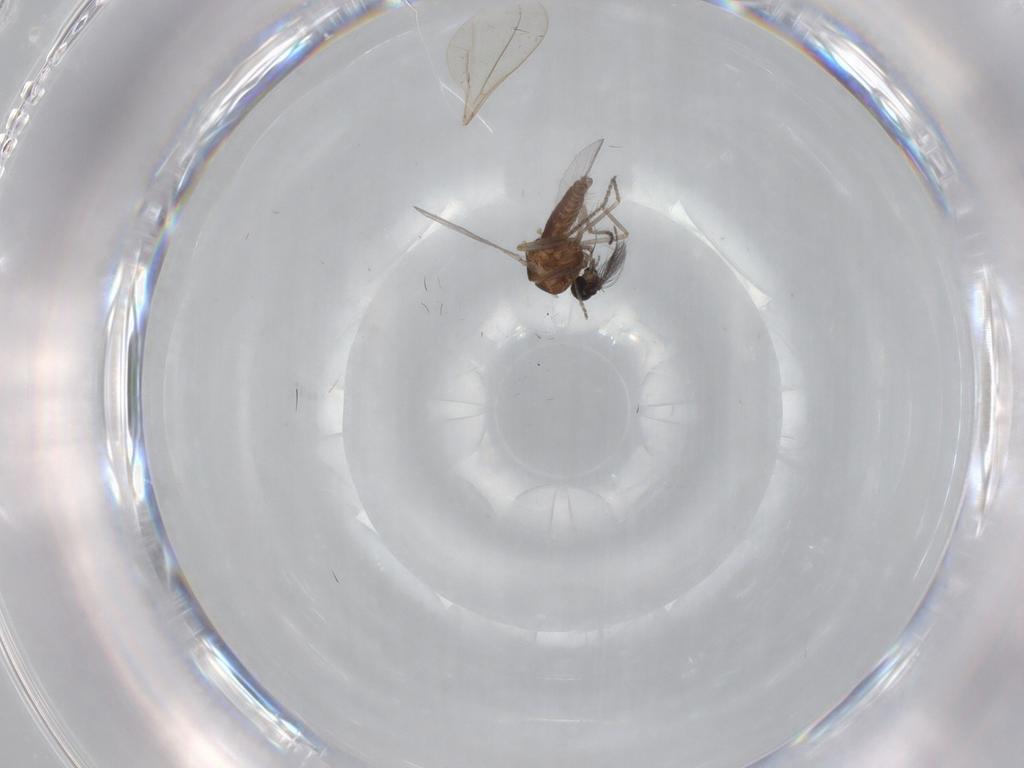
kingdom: Animalia
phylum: Arthropoda
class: Insecta
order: Diptera
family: Ceratopogonidae
